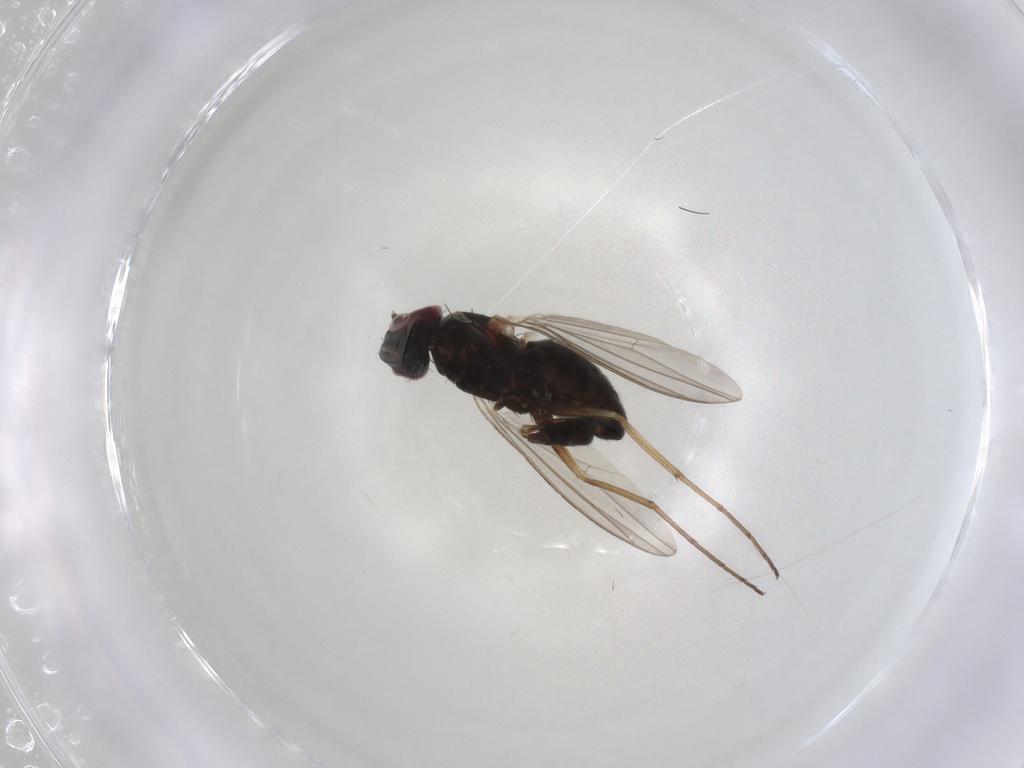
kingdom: Animalia
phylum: Arthropoda
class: Insecta
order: Diptera
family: Dolichopodidae
